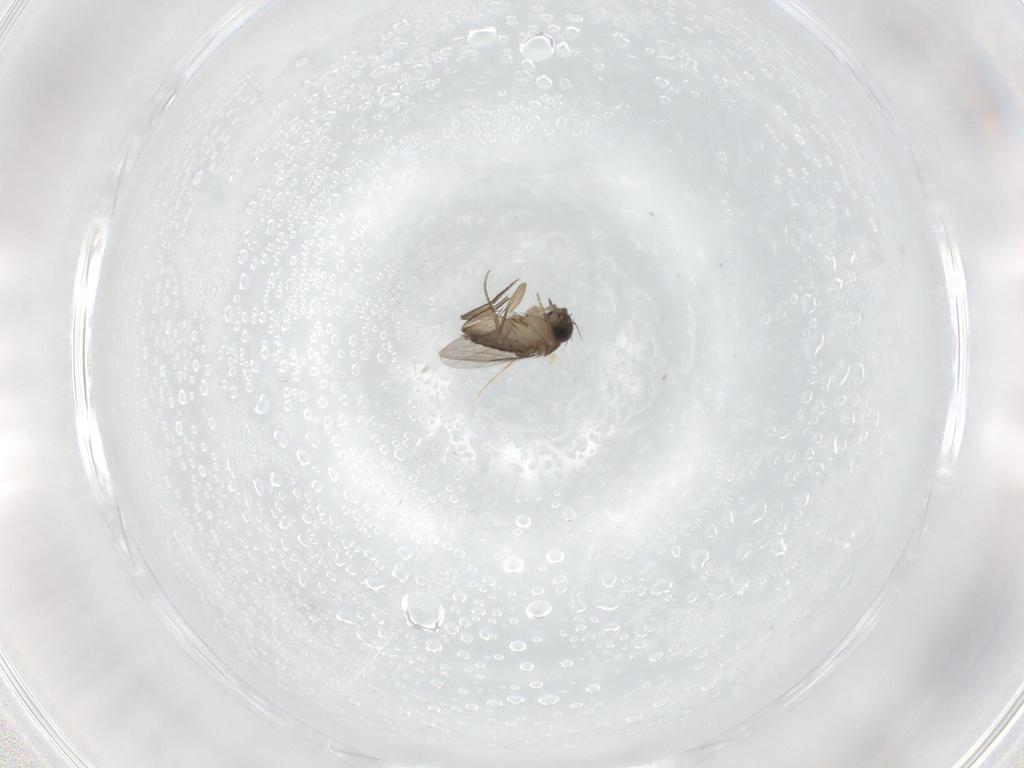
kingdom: Animalia
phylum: Arthropoda
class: Insecta
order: Diptera
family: Phoridae
